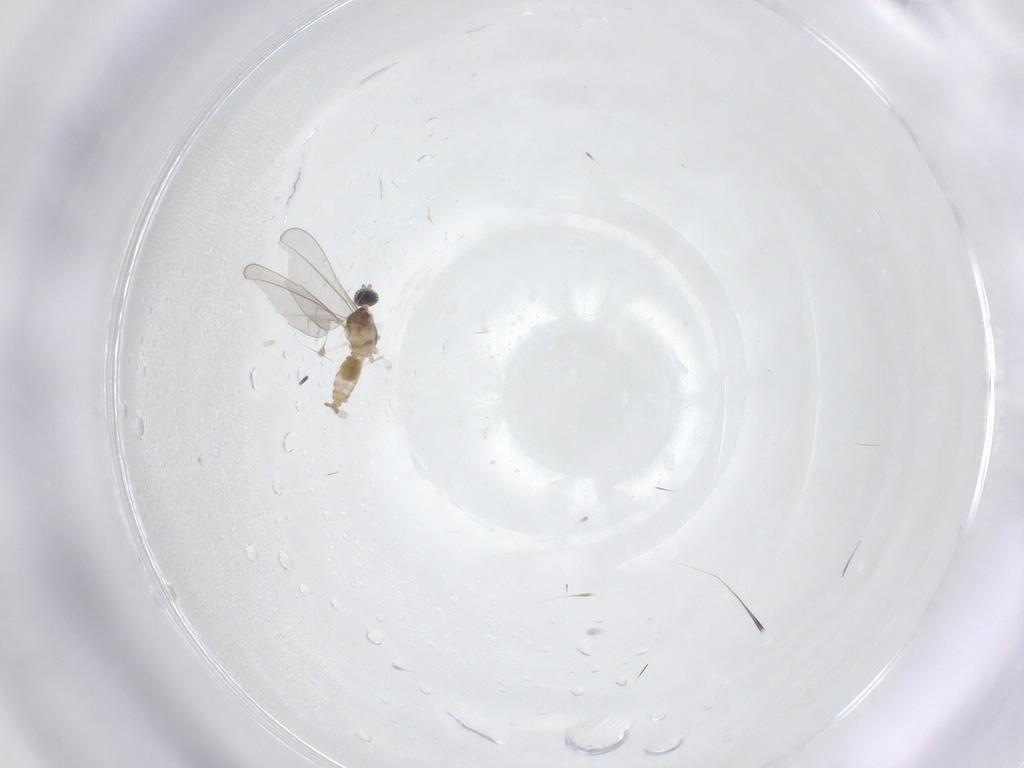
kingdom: Animalia
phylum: Arthropoda
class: Insecta
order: Diptera
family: Cecidomyiidae
